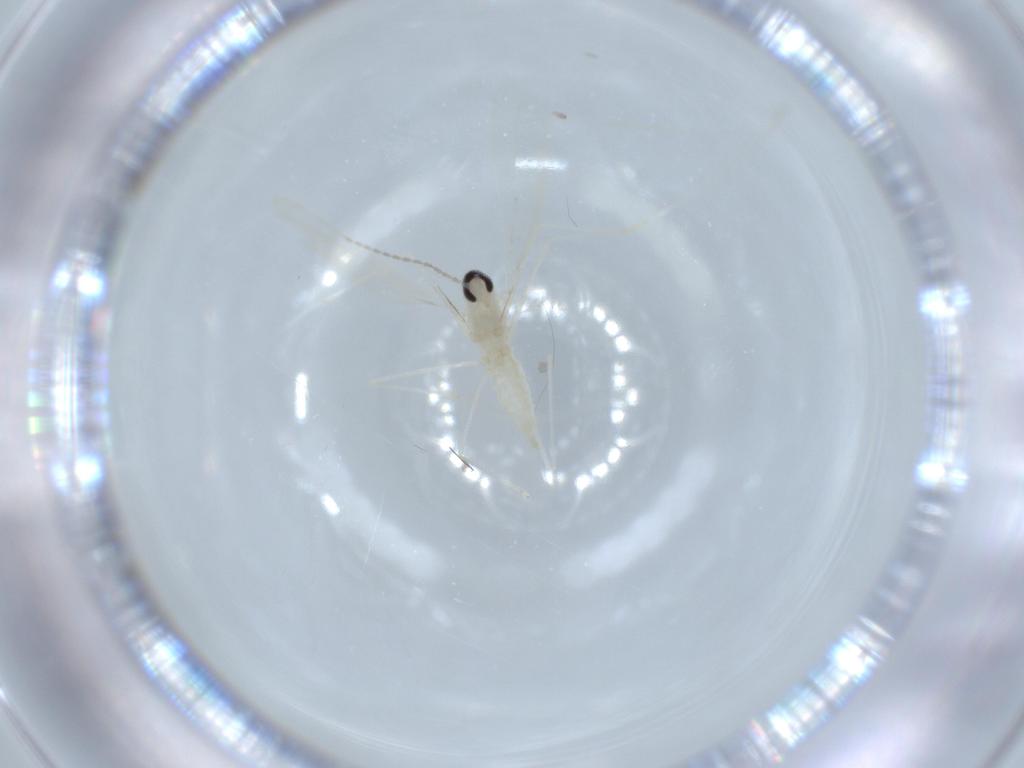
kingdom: Animalia
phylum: Arthropoda
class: Insecta
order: Diptera
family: Cecidomyiidae
